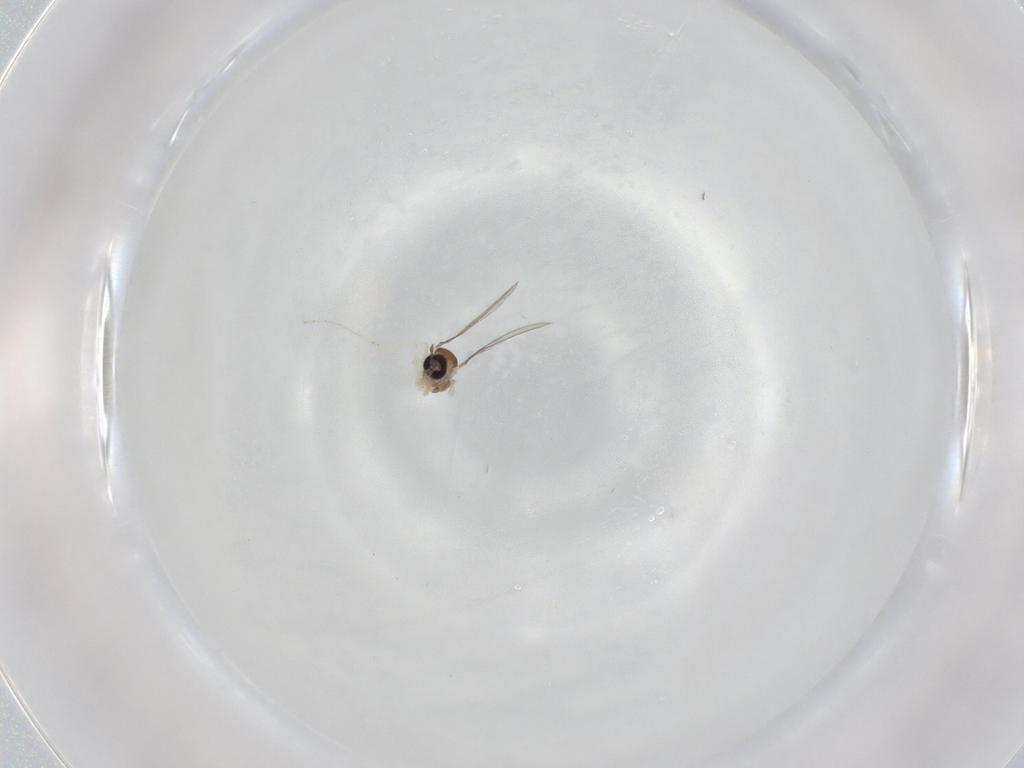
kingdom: Animalia
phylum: Arthropoda
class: Insecta
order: Diptera
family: Cecidomyiidae
